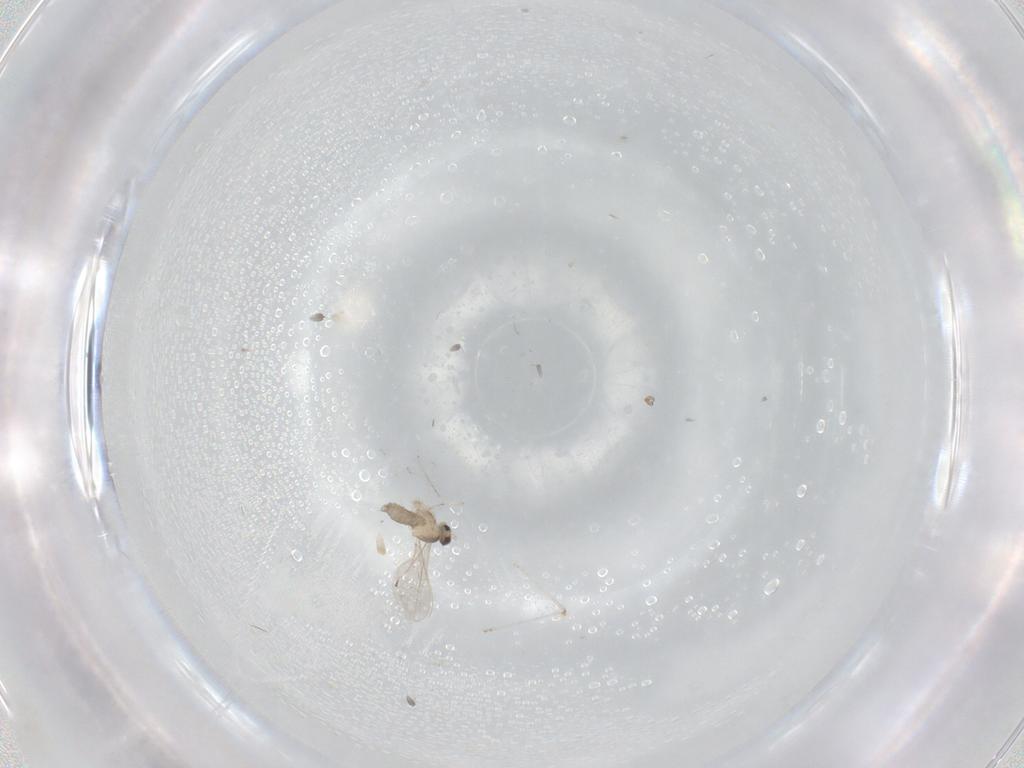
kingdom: Animalia
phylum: Arthropoda
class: Insecta
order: Diptera
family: Cecidomyiidae
